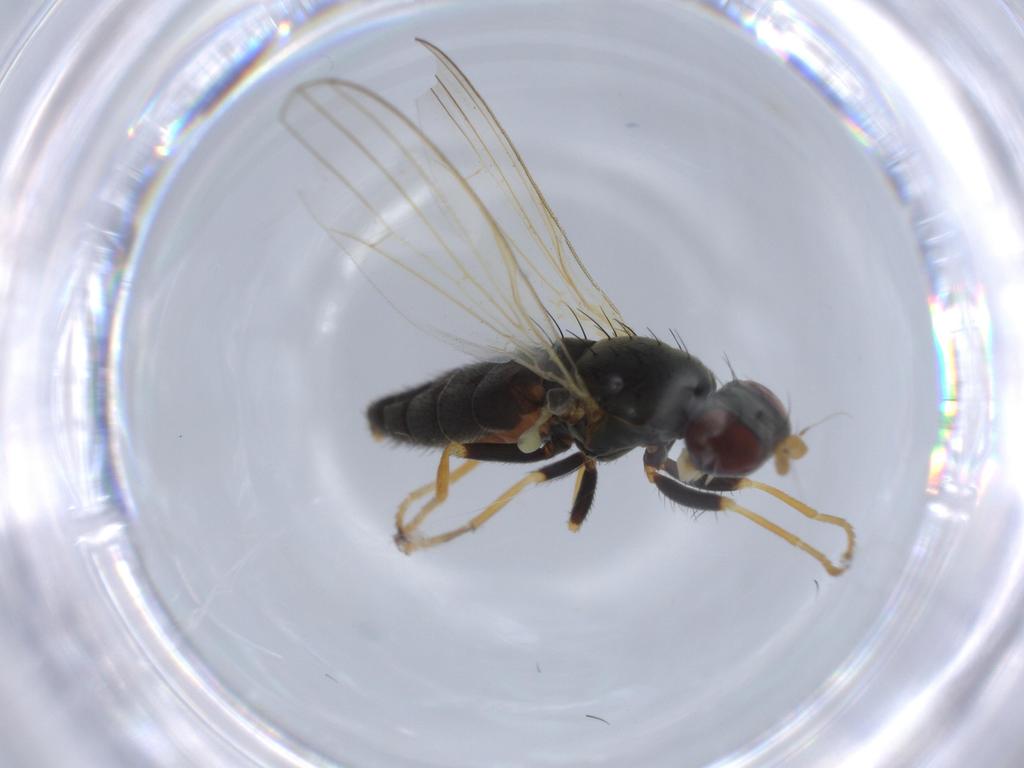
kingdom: Animalia
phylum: Arthropoda
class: Insecta
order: Diptera
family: Chamaemyiidae
